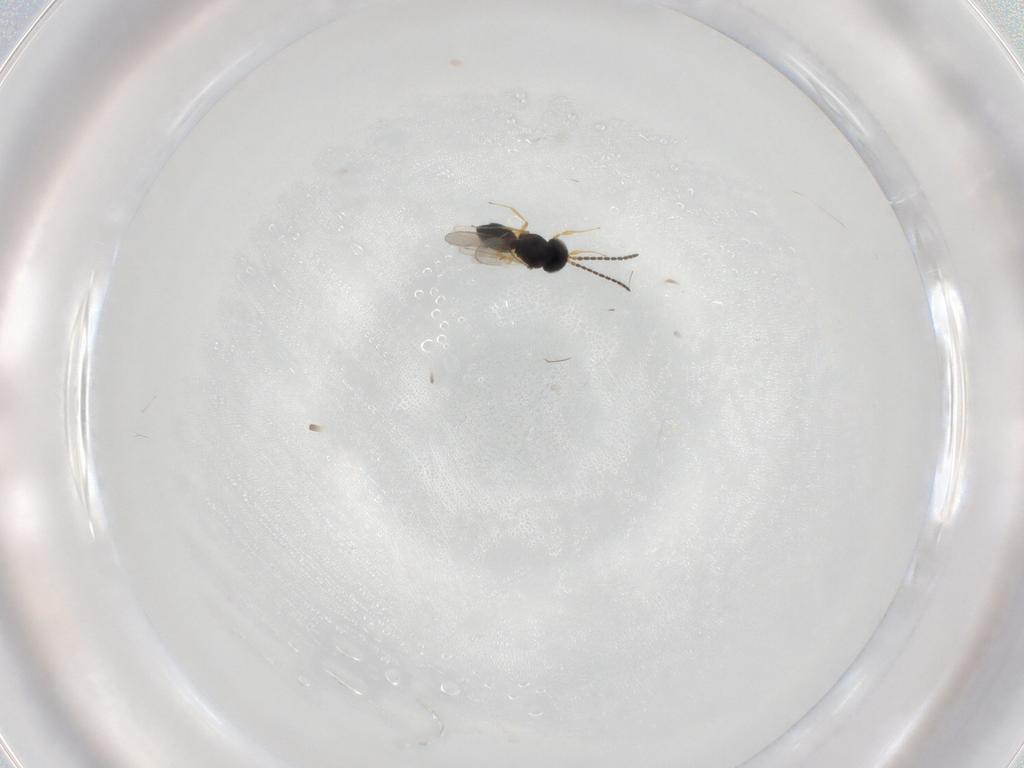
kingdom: Animalia
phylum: Arthropoda
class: Insecta
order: Hymenoptera
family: Scelionidae
